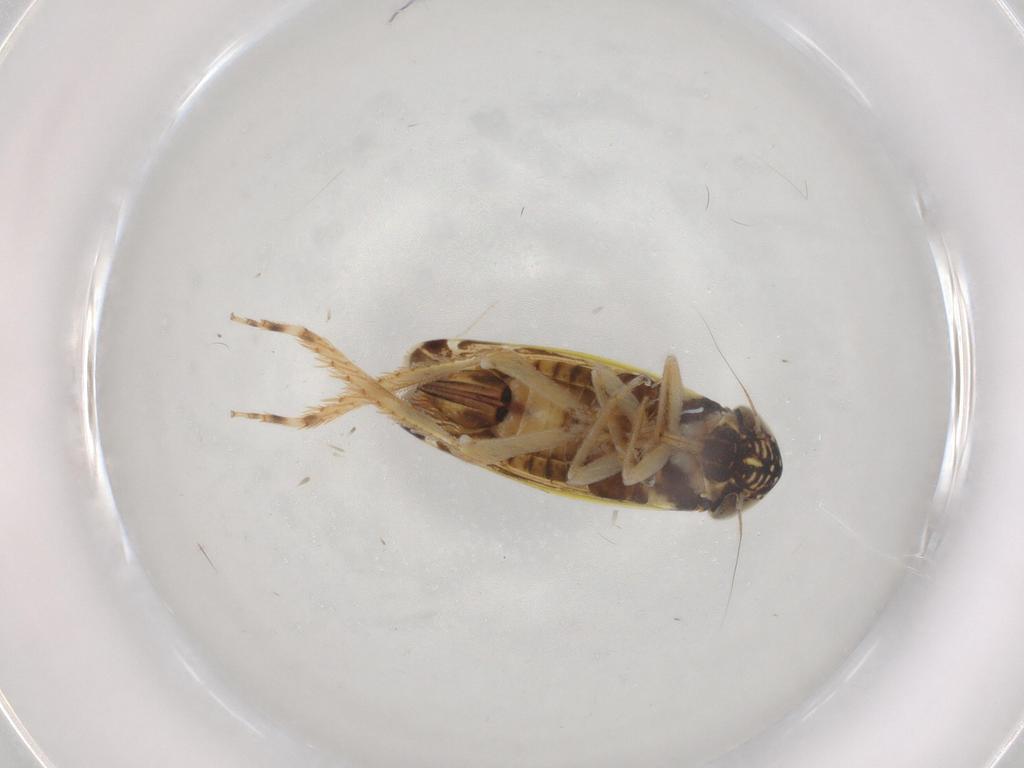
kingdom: Animalia
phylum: Arthropoda
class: Insecta
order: Hemiptera
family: Cicadellidae
